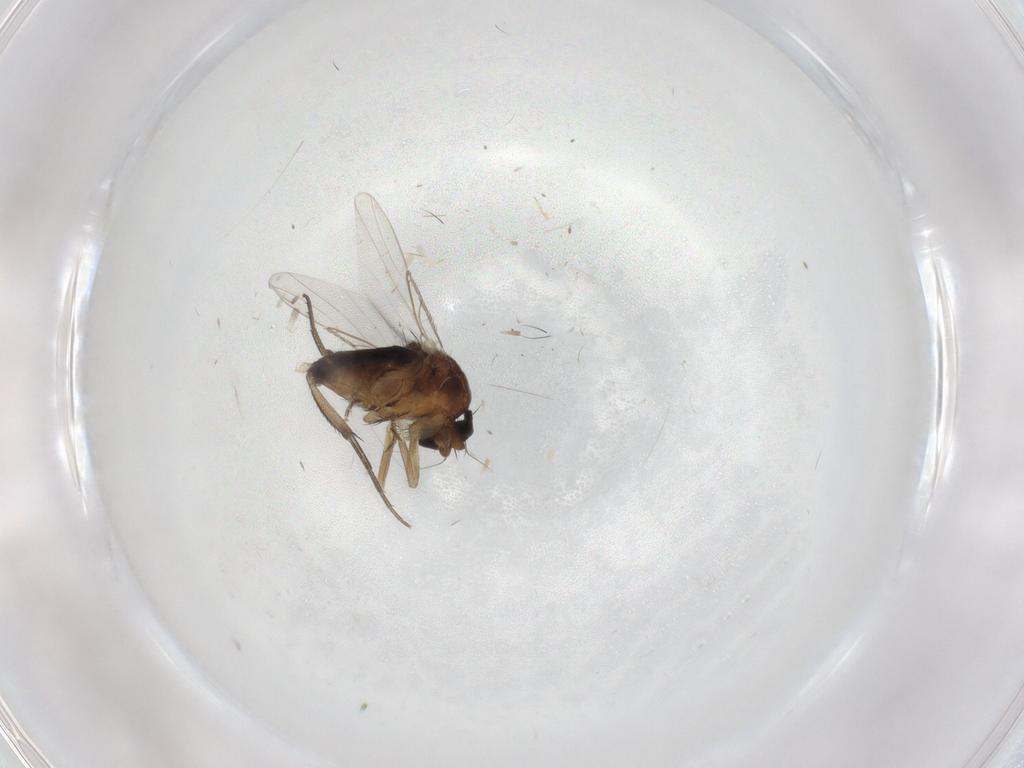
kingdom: Animalia
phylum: Arthropoda
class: Insecta
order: Diptera
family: Phoridae
